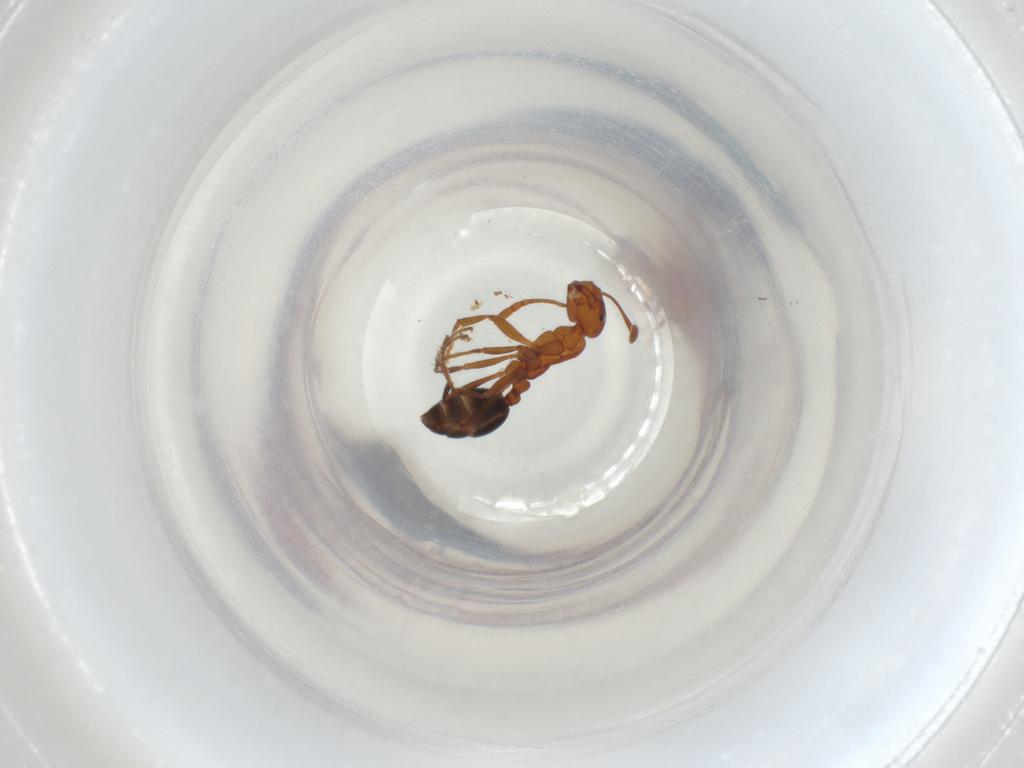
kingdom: Animalia
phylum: Arthropoda
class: Insecta
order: Hymenoptera
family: Formicidae
